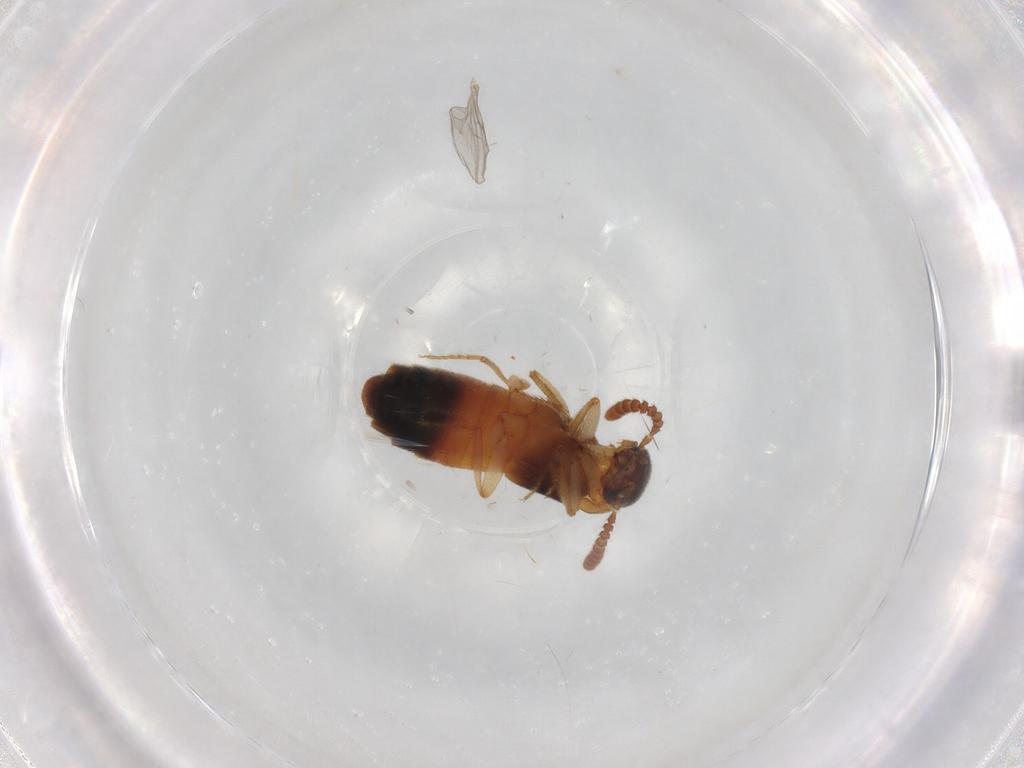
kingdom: Animalia
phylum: Arthropoda
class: Insecta
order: Coleoptera
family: Staphylinidae
